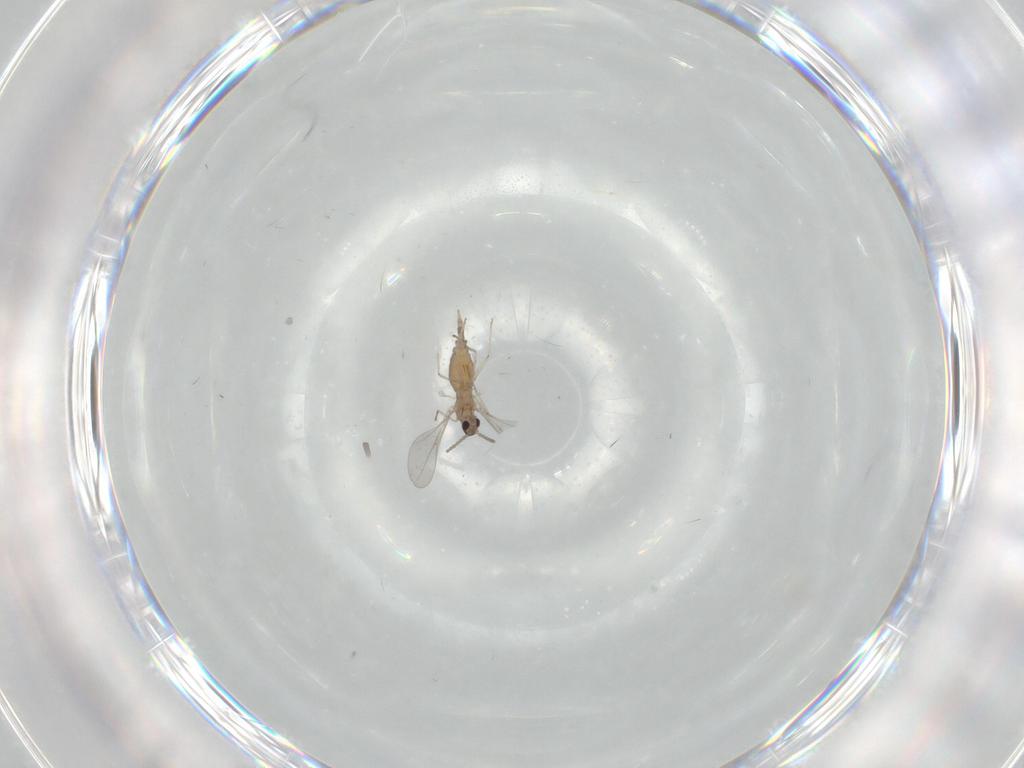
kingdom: Animalia
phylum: Arthropoda
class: Insecta
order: Diptera
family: Cecidomyiidae
